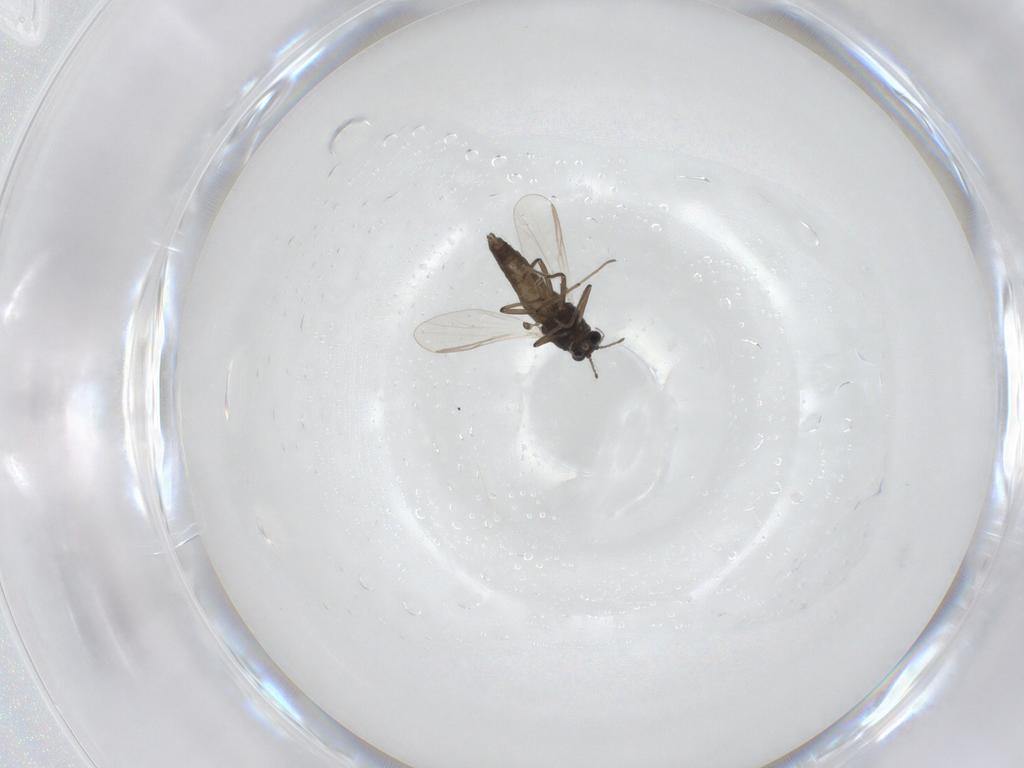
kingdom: Animalia
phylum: Arthropoda
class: Insecta
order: Diptera
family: Chironomidae
